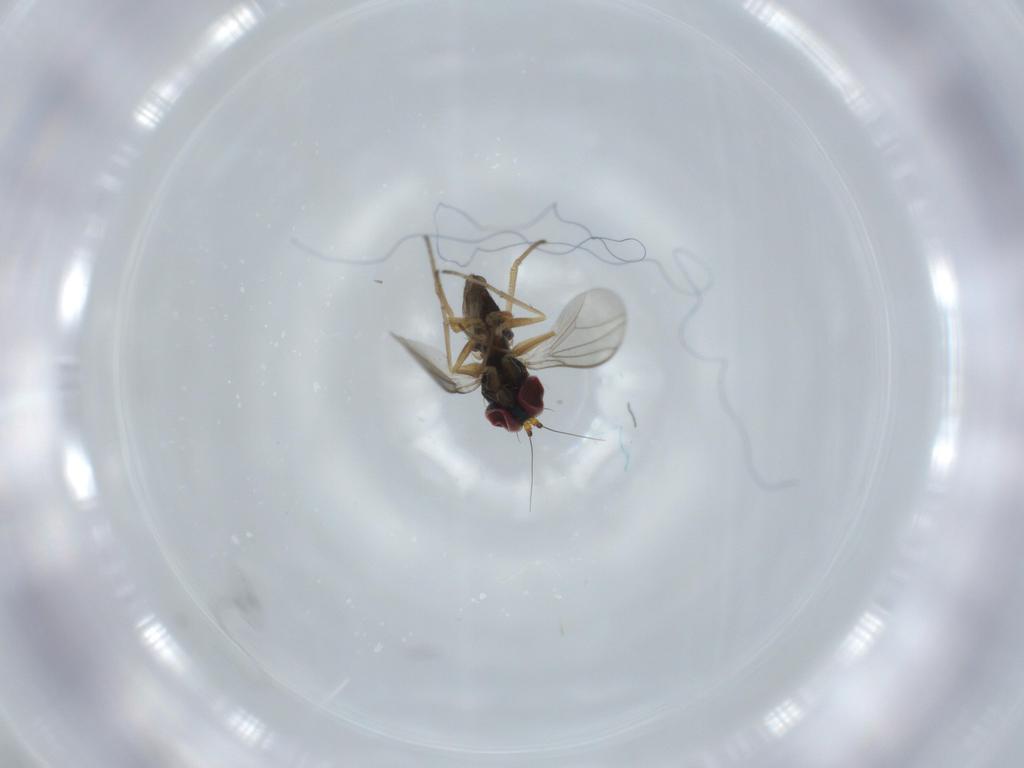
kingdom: Animalia
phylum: Arthropoda
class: Insecta
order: Diptera
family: Dolichopodidae
